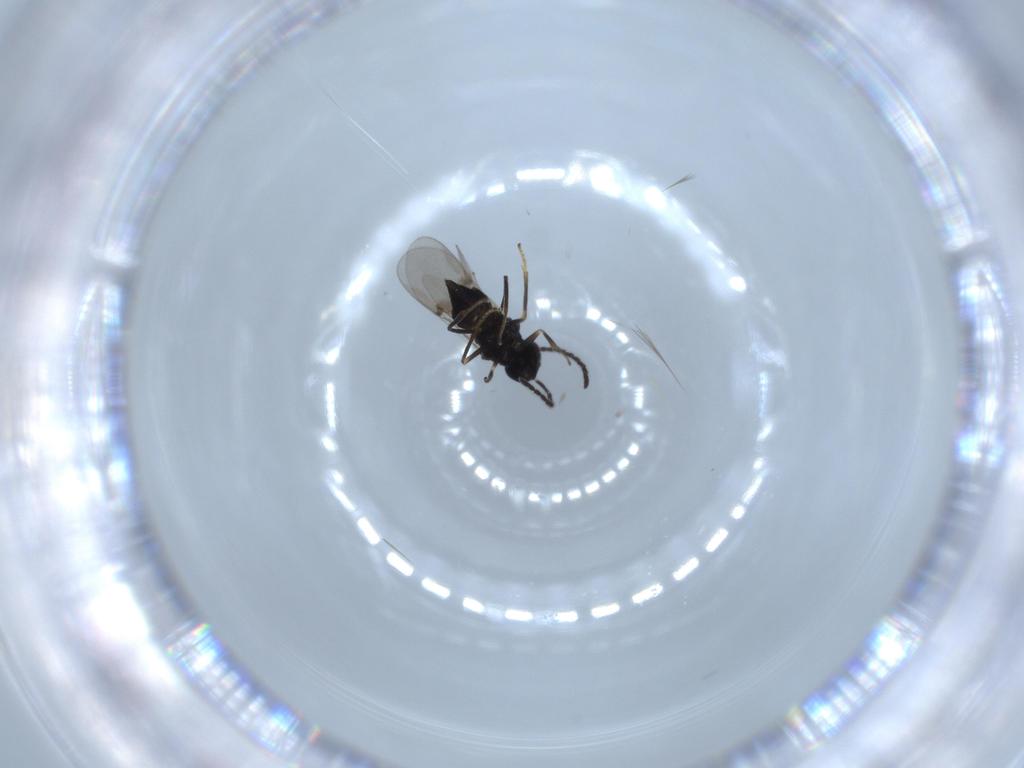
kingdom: Animalia
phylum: Arthropoda
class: Insecta
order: Hymenoptera
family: Encyrtidae
